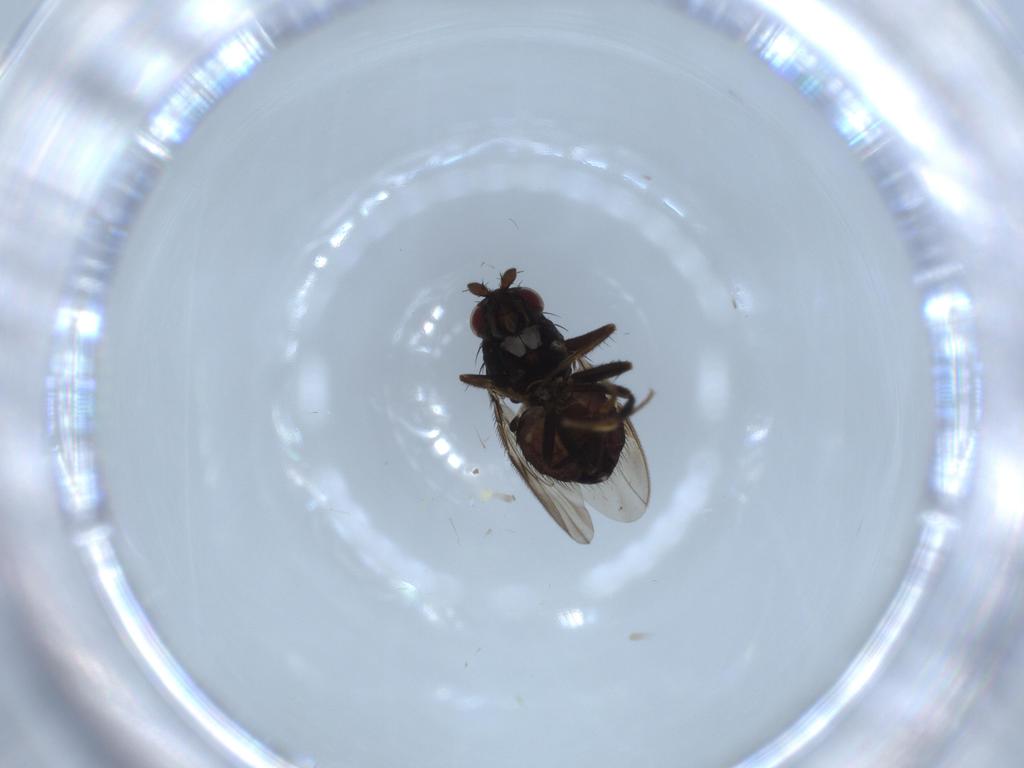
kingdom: Animalia
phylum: Arthropoda
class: Insecta
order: Diptera
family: Sphaeroceridae
